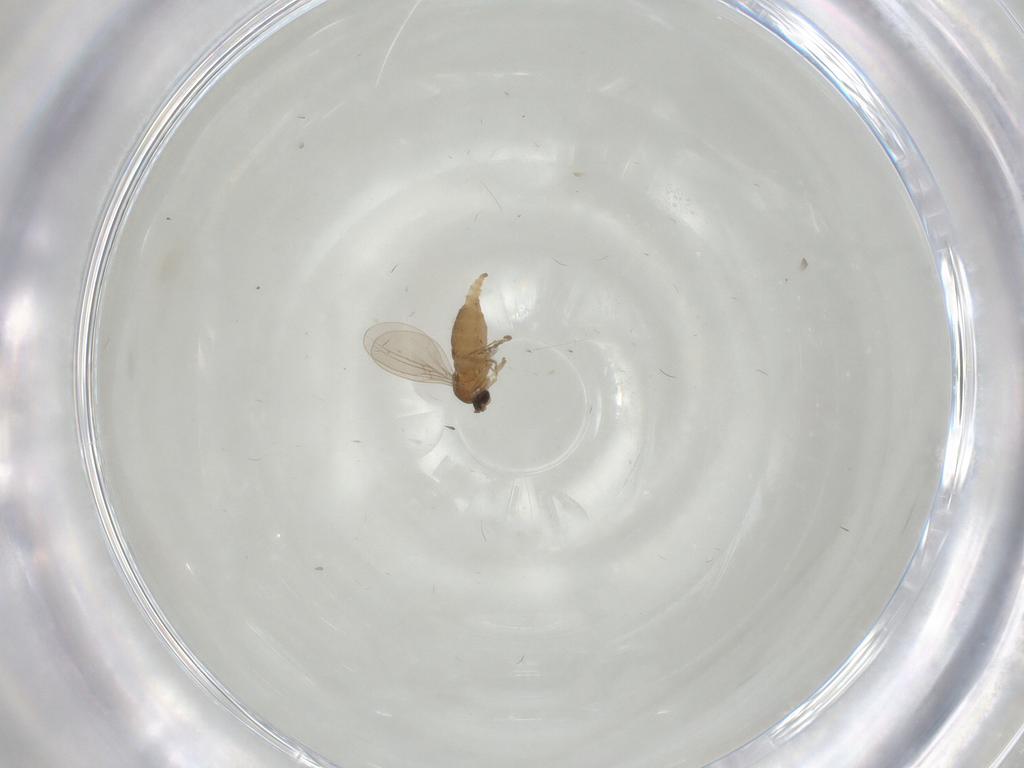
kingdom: Animalia
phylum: Arthropoda
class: Insecta
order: Diptera
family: Cecidomyiidae
